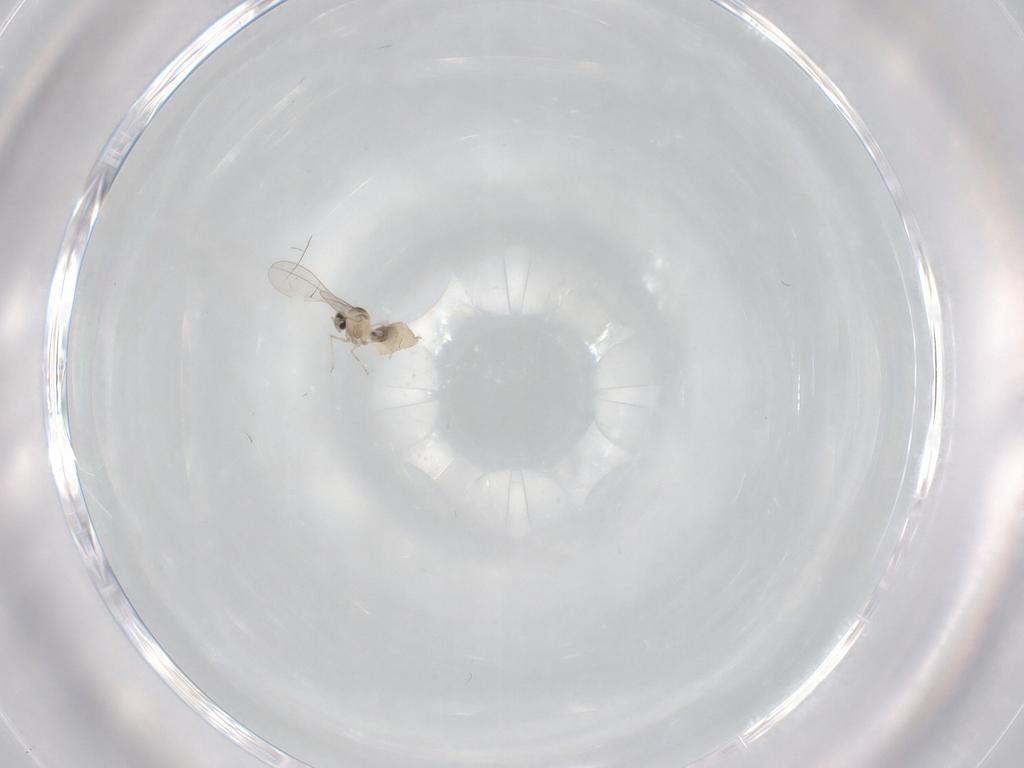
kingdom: Animalia
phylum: Arthropoda
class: Insecta
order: Diptera
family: Cecidomyiidae
